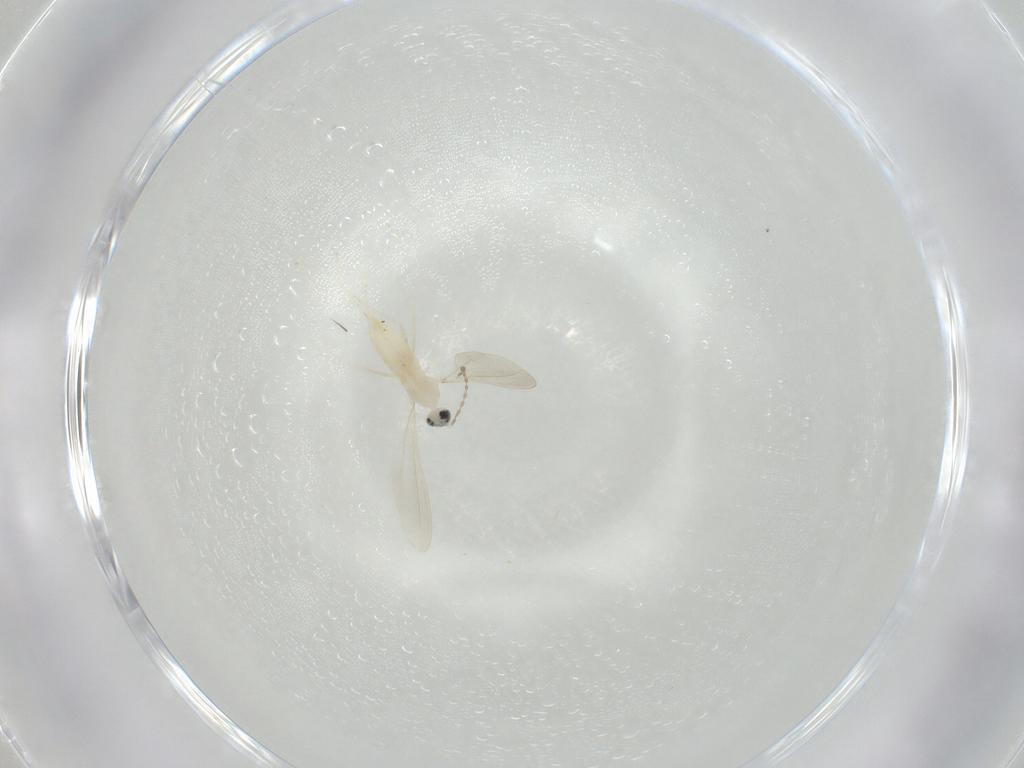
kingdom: Animalia
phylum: Arthropoda
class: Insecta
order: Diptera
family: Cecidomyiidae
